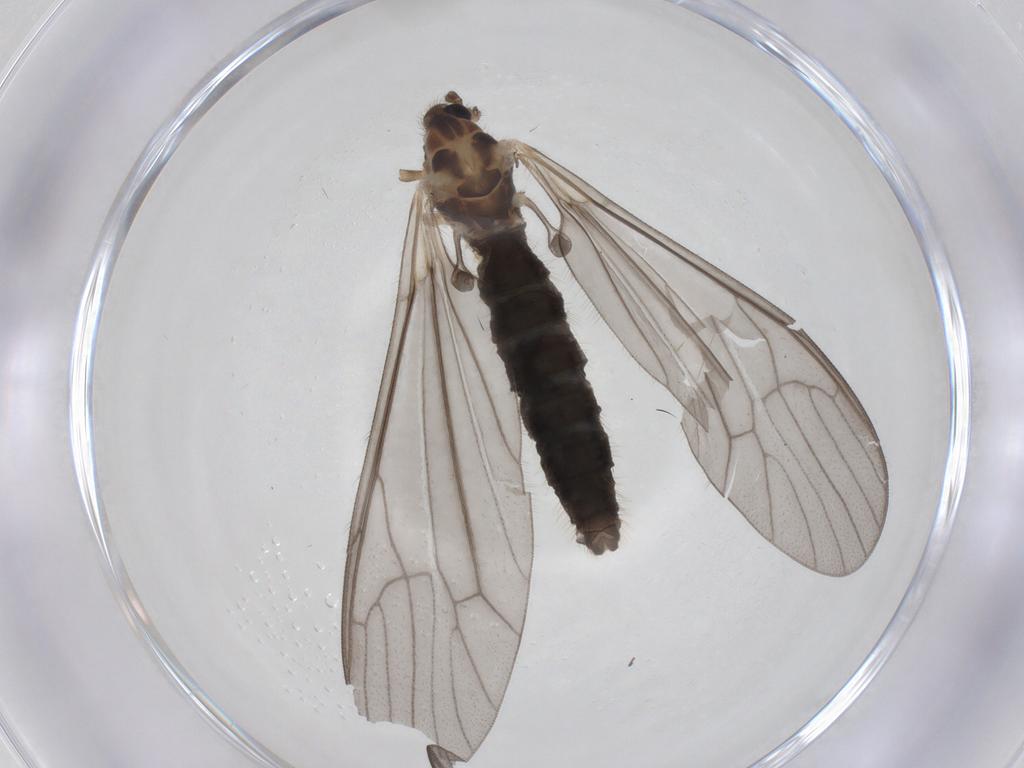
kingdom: Animalia
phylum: Arthropoda
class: Insecta
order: Diptera
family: Limoniidae
